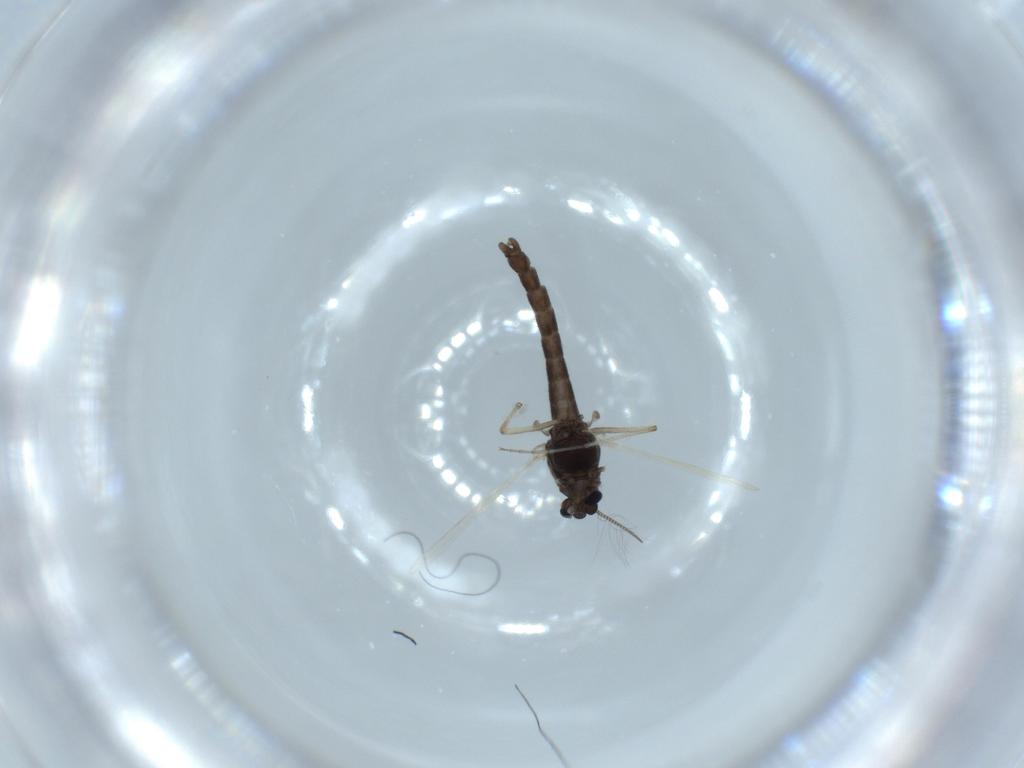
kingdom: Animalia
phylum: Arthropoda
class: Insecta
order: Diptera
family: Chironomidae
